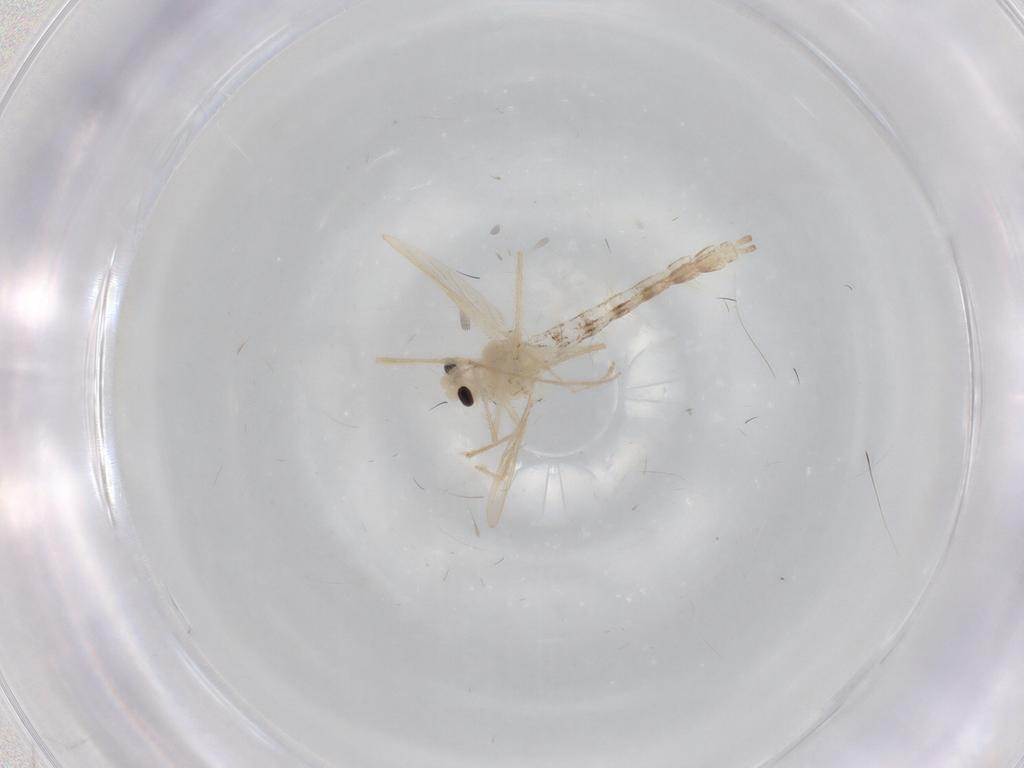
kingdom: Animalia
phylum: Arthropoda
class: Insecta
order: Diptera
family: Chironomidae
